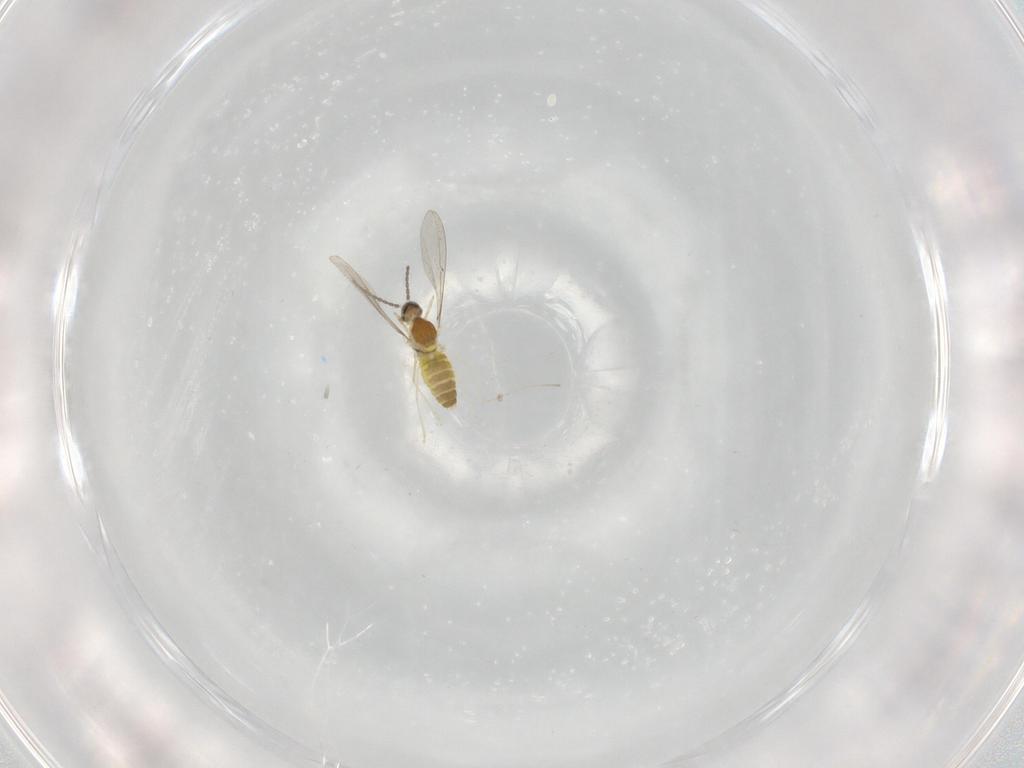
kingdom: Animalia
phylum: Arthropoda
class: Insecta
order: Diptera
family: Cecidomyiidae
